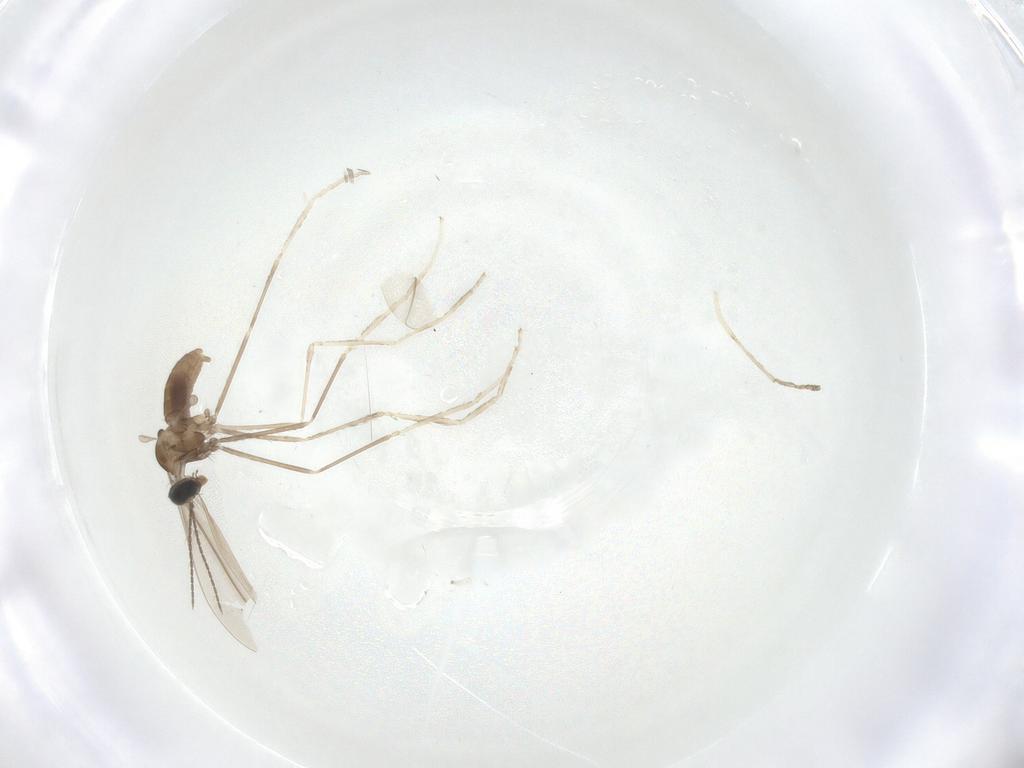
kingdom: Animalia
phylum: Arthropoda
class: Insecta
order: Diptera
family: Cecidomyiidae
